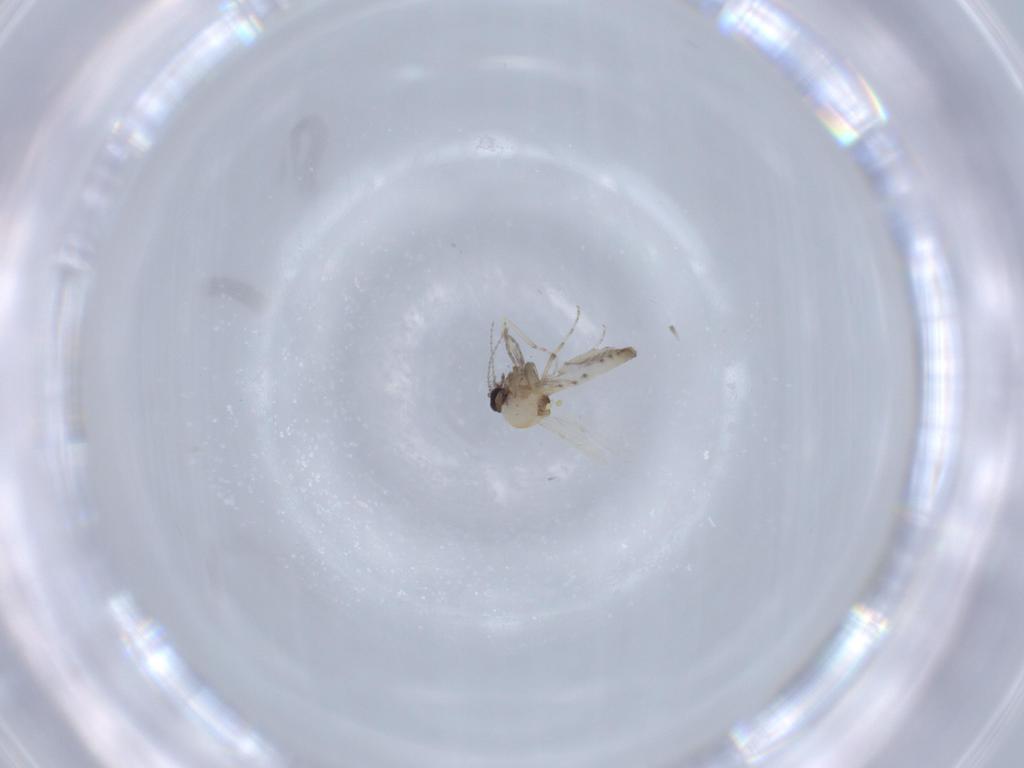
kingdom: Animalia
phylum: Arthropoda
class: Insecta
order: Diptera
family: Ceratopogonidae
